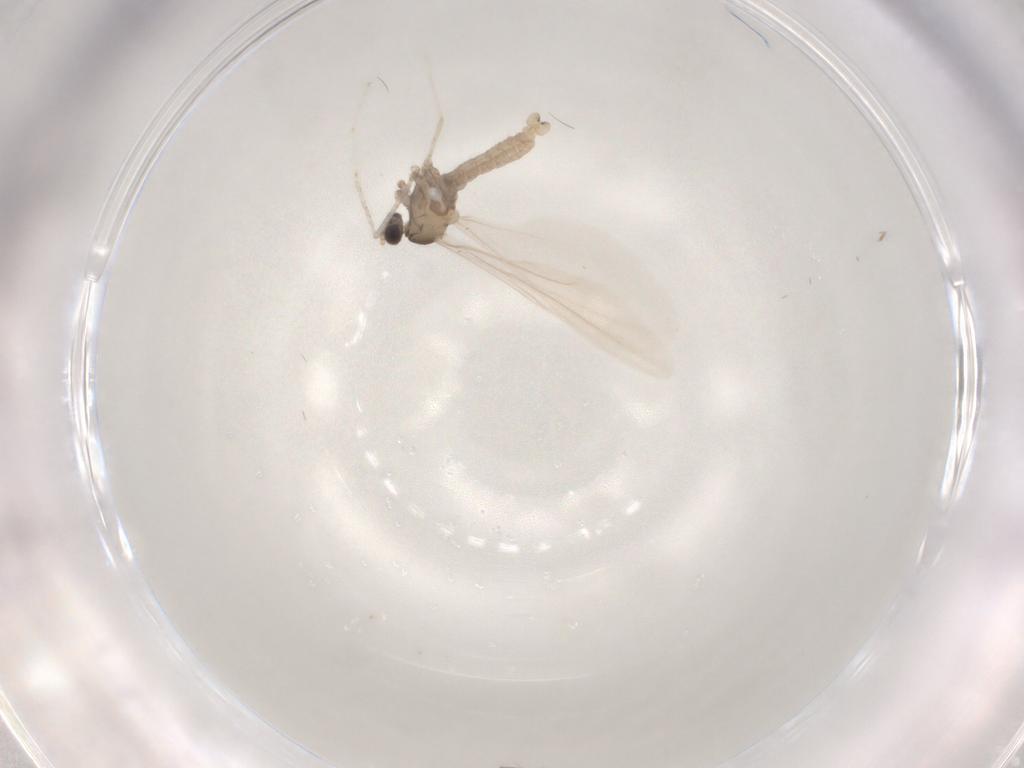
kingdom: Animalia
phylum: Arthropoda
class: Insecta
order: Diptera
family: Cecidomyiidae
